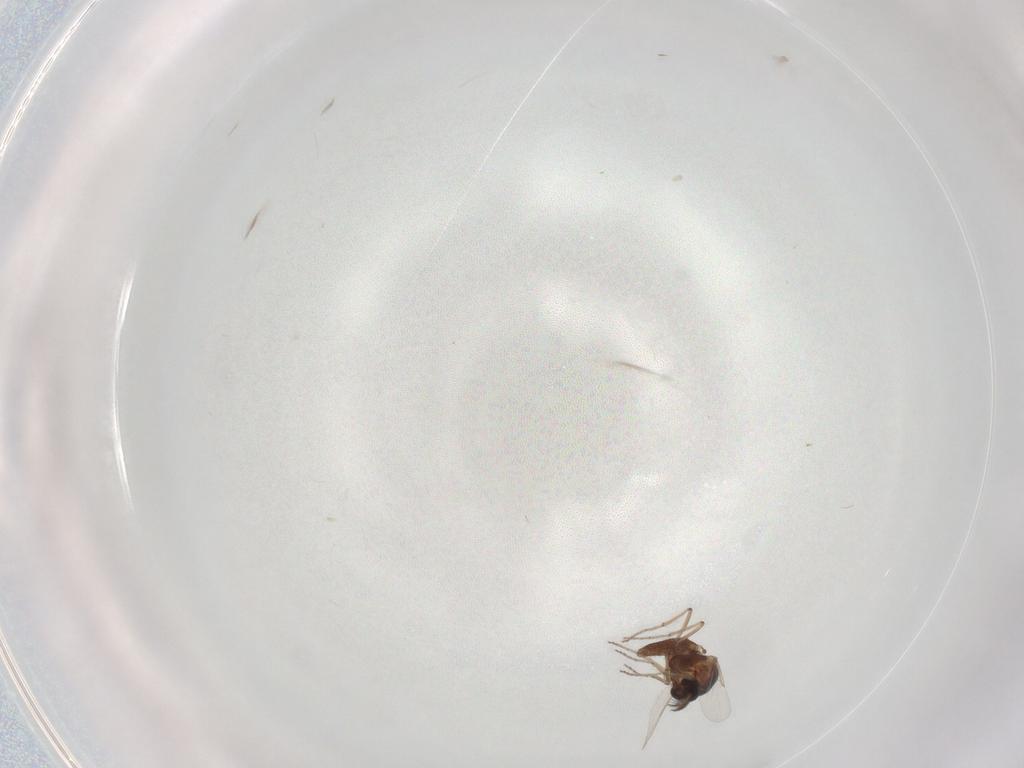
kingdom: Animalia
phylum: Arthropoda
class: Insecta
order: Diptera
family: Ceratopogonidae
